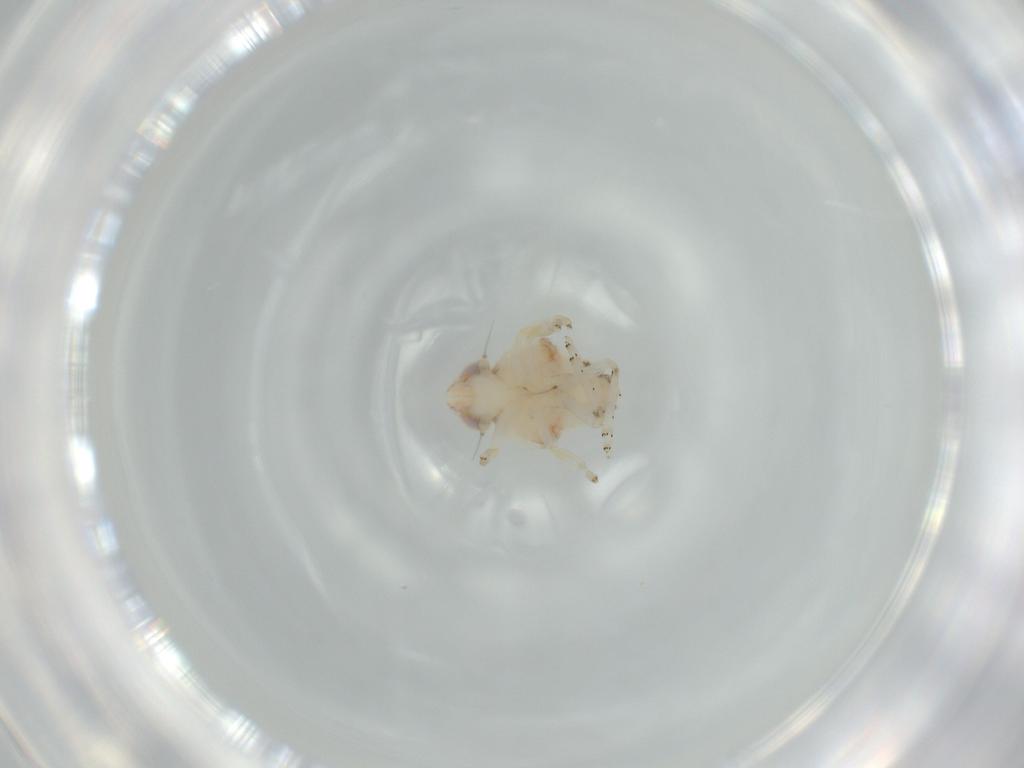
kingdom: Animalia
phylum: Arthropoda
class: Insecta
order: Hemiptera
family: Nogodinidae
